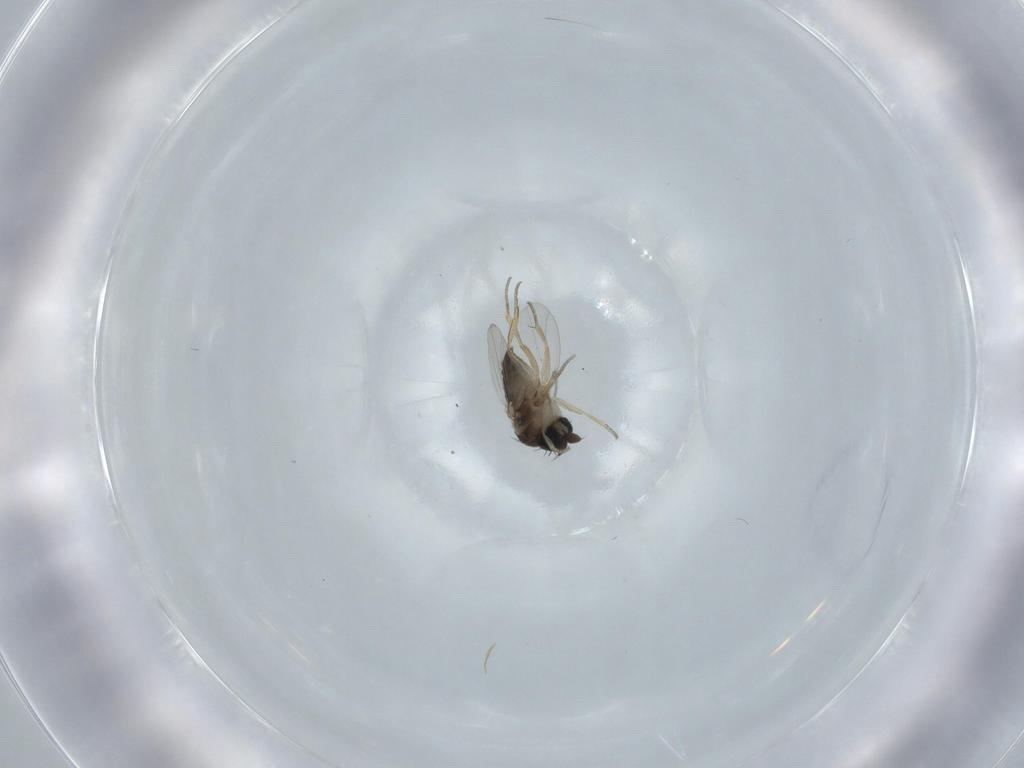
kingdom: Animalia
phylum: Arthropoda
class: Insecta
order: Diptera
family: Phoridae
